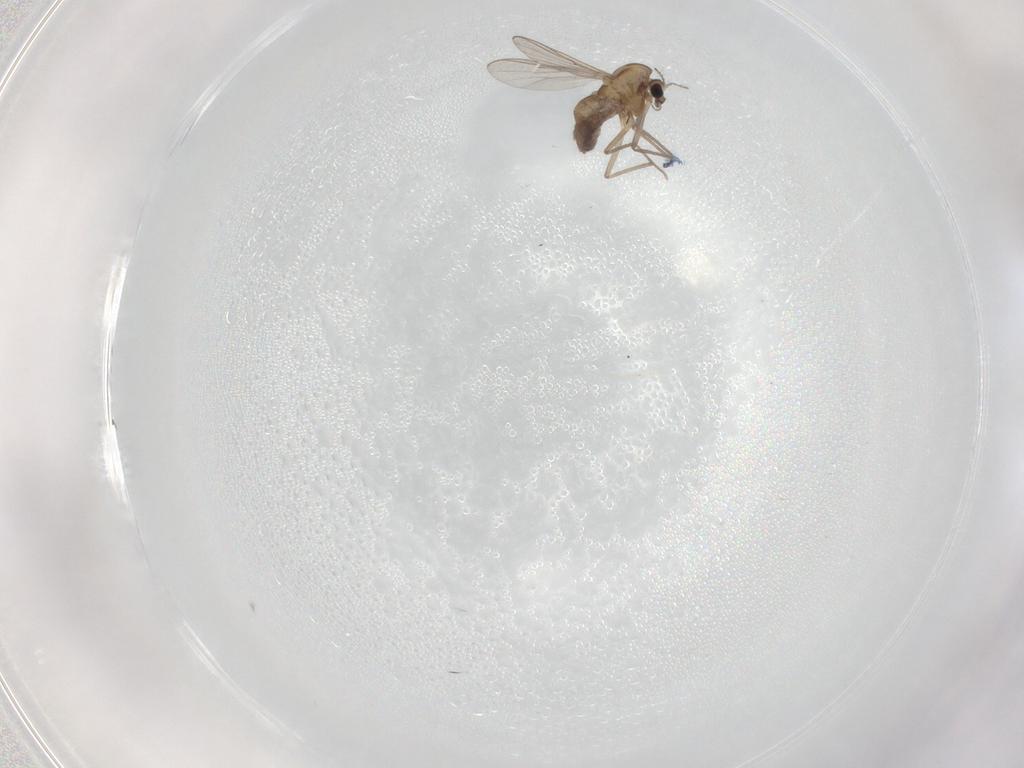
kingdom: Animalia
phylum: Arthropoda
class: Insecta
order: Diptera
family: Chironomidae
